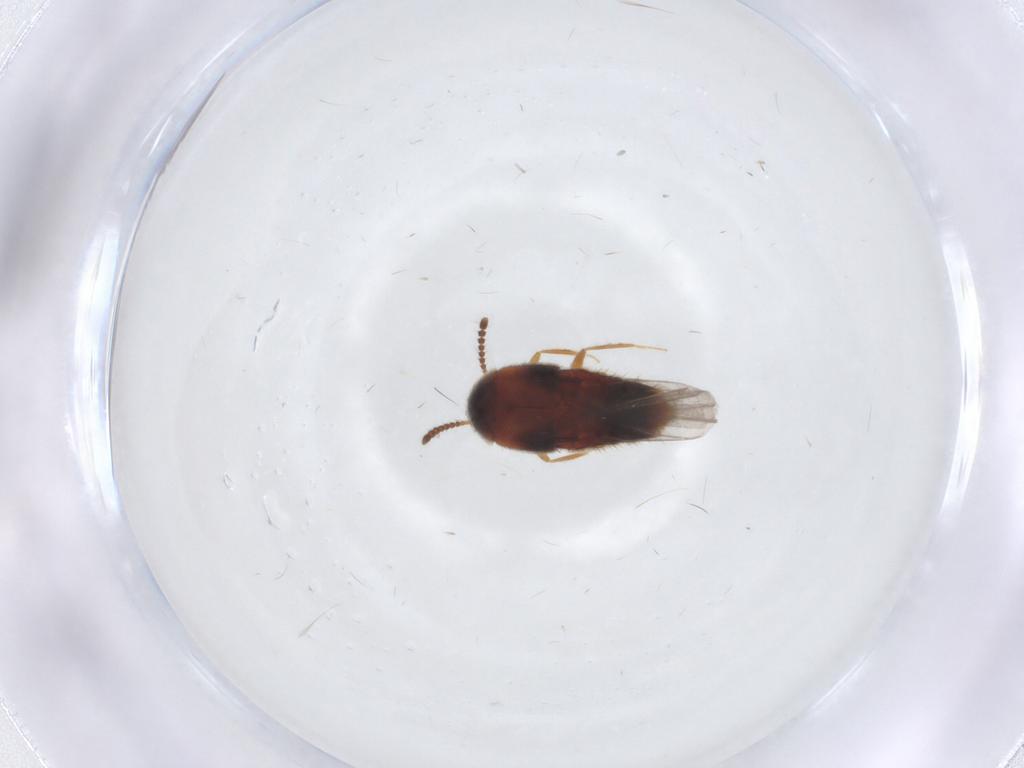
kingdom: Animalia
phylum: Arthropoda
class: Insecta
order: Coleoptera
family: Staphylinidae
